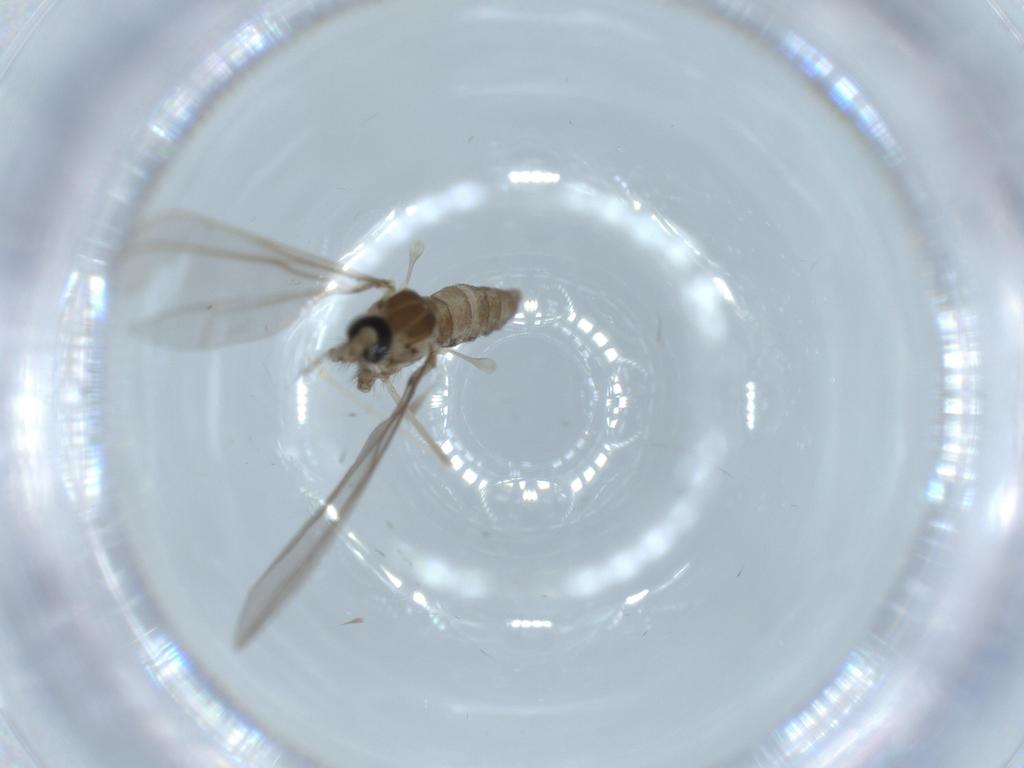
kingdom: Animalia
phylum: Arthropoda
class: Insecta
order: Diptera
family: Cecidomyiidae
